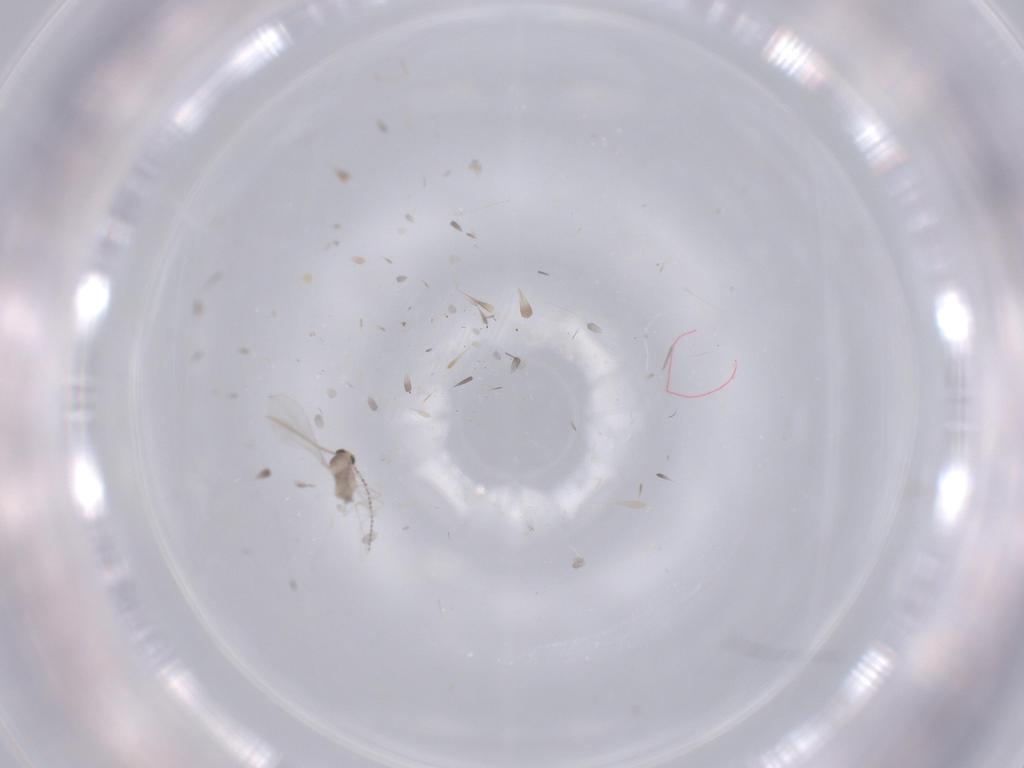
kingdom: Animalia
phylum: Arthropoda
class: Insecta
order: Diptera
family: Cecidomyiidae
